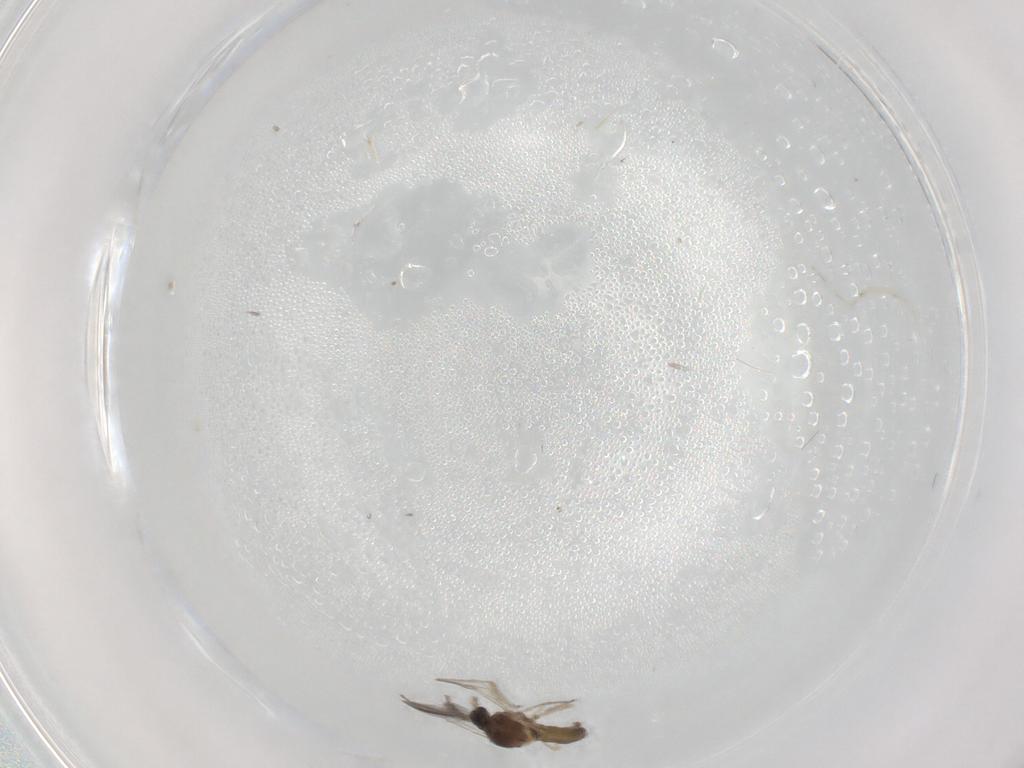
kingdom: Animalia
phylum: Arthropoda
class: Insecta
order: Diptera
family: Ceratopogonidae
